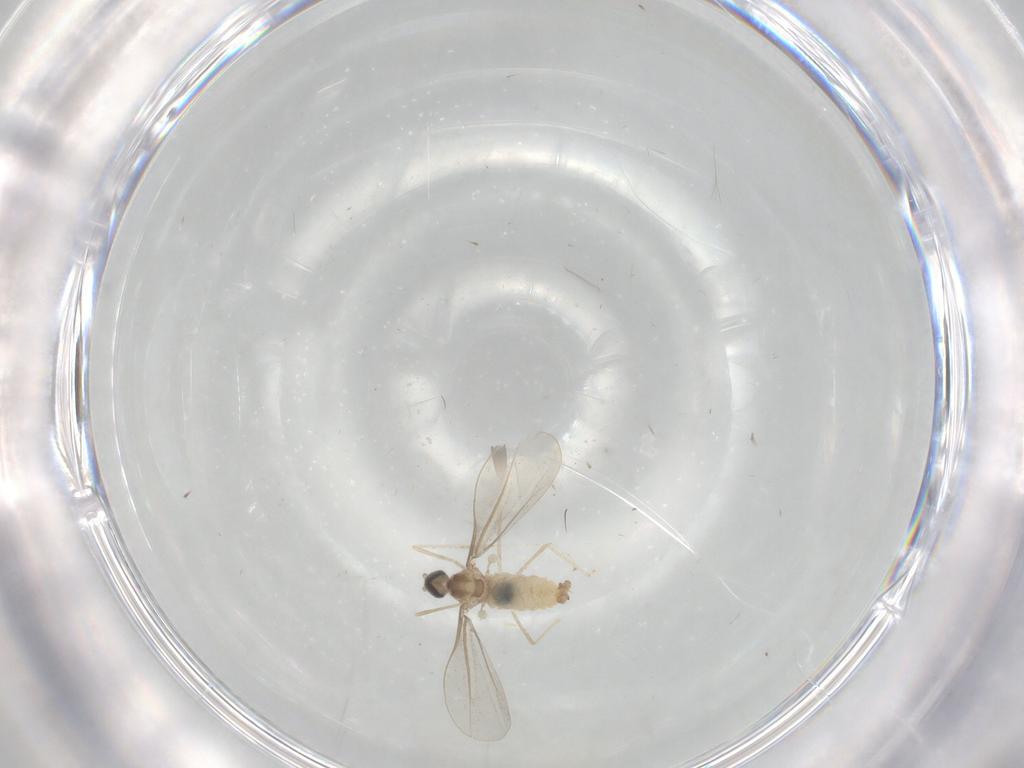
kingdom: Animalia
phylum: Arthropoda
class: Insecta
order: Diptera
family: Cecidomyiidae
